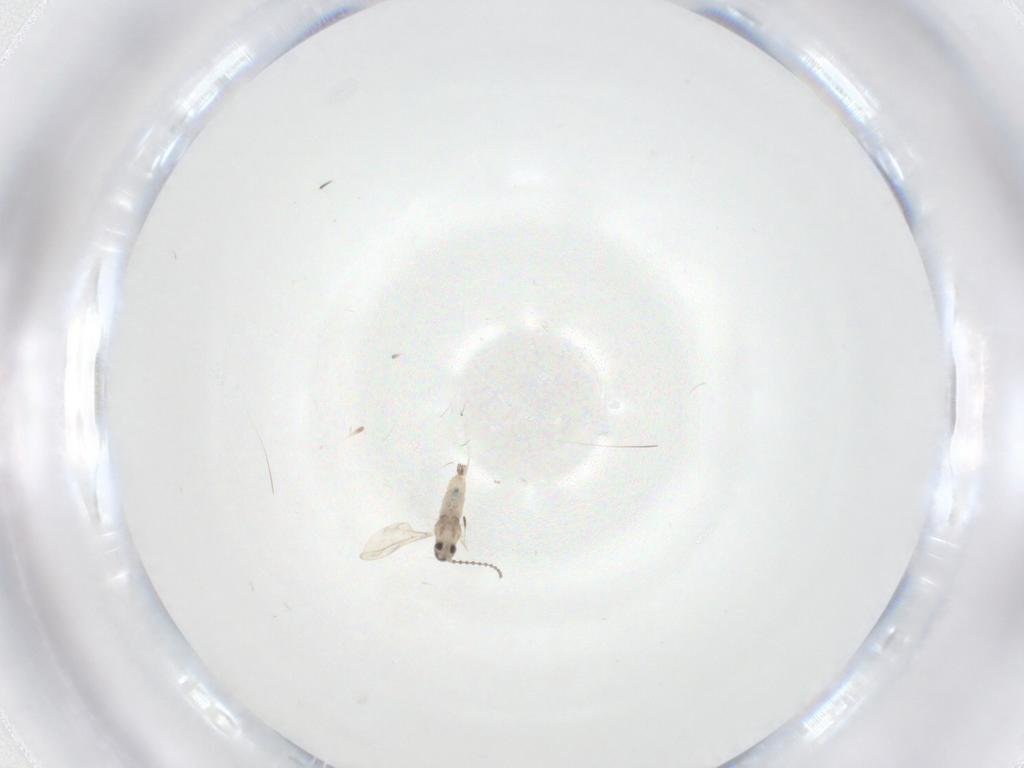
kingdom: Animalia
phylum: Arthropoda
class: Insecta
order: Diptera
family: Cecidomyiidae
